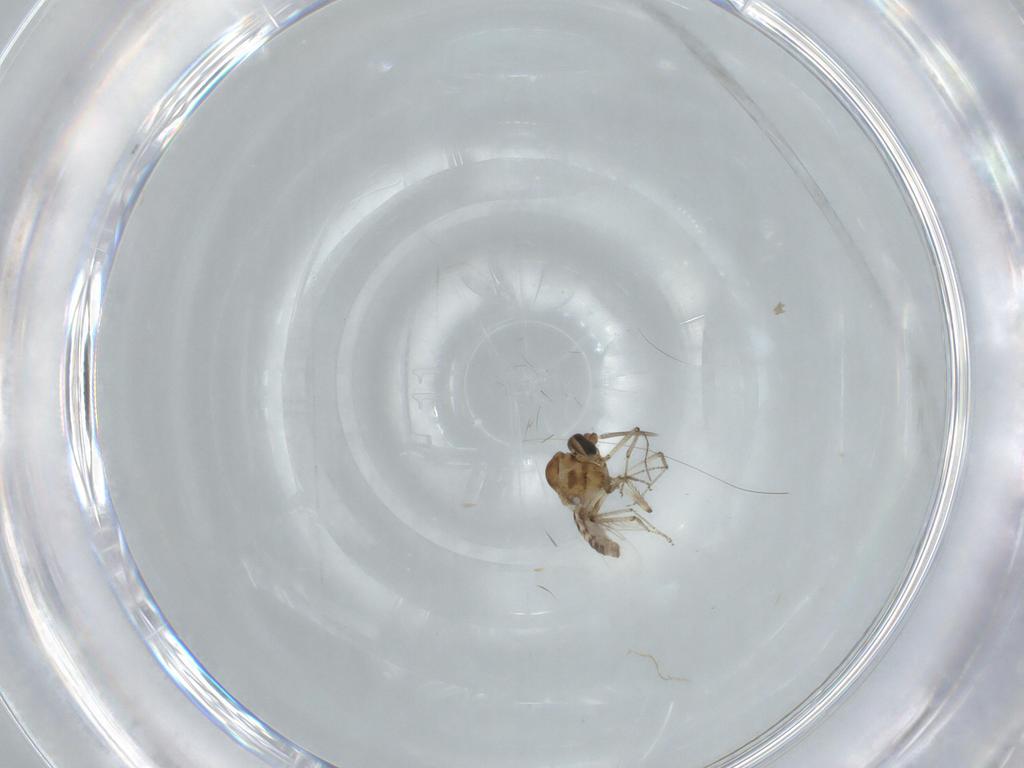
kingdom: Animalia
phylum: Arthropoda
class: Insecta
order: Diptera
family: Ceratopogonidae
